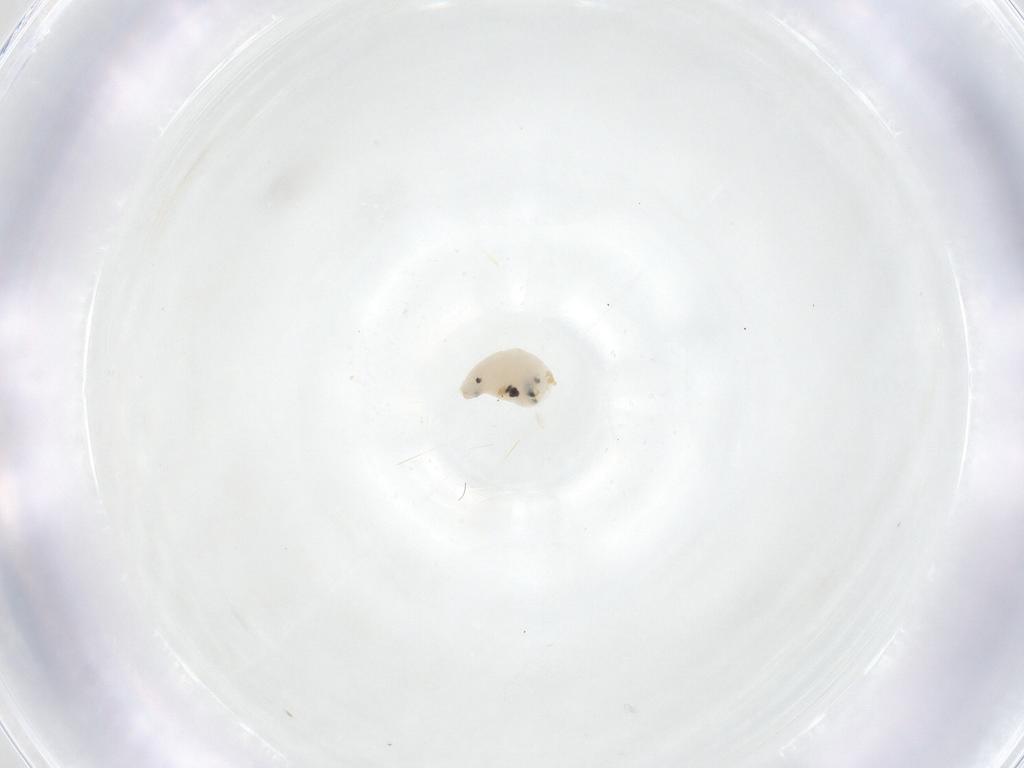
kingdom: Animalia
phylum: Arthropoda
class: Insecta
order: Diptera
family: Fergusoninidae
